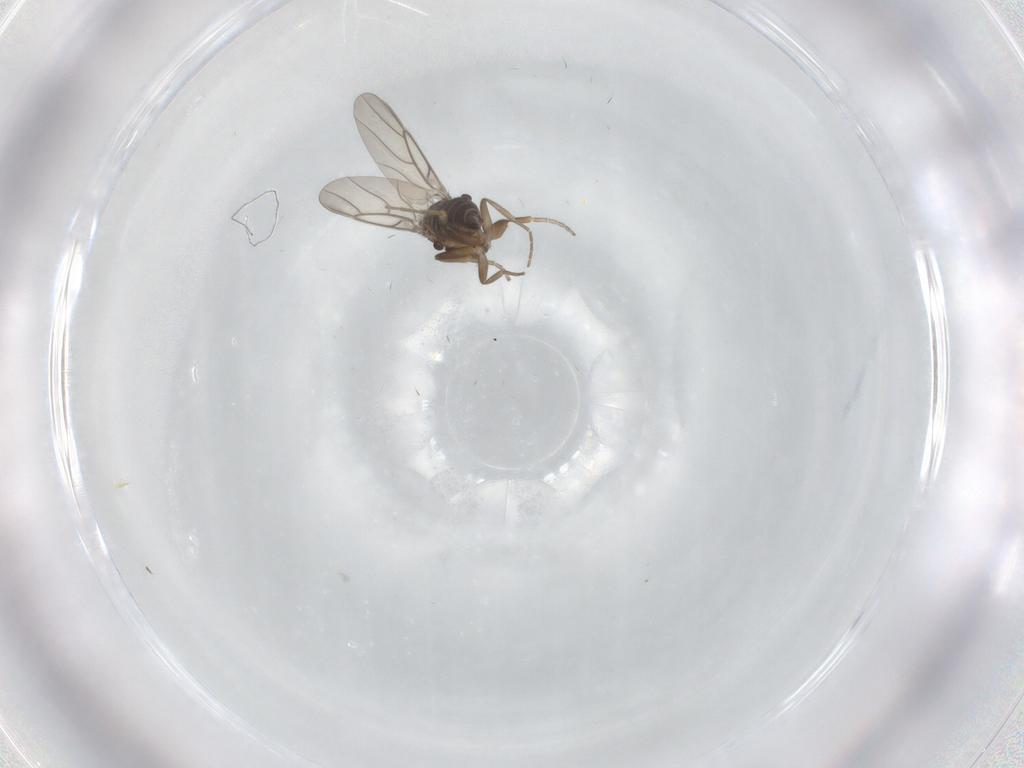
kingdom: Animalia
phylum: Arthropoda
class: Insecta
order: Diptera
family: Phoridae
